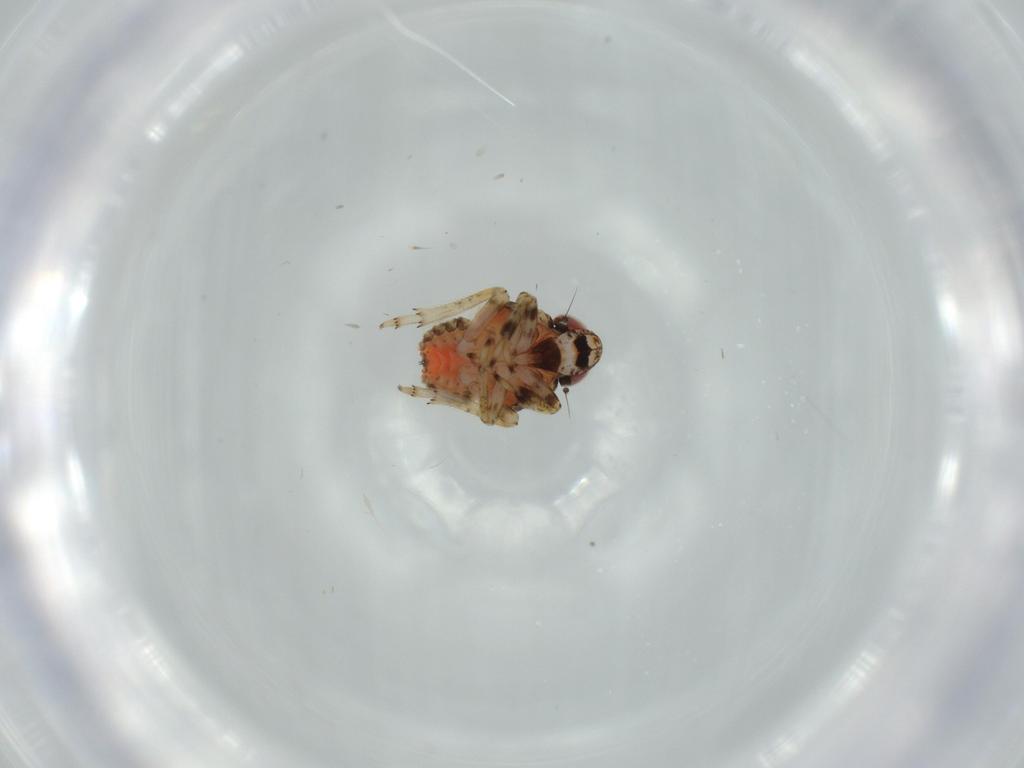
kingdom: Animalia
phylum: Arthropoda
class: Insecta
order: Hemiptera
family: Issidae
